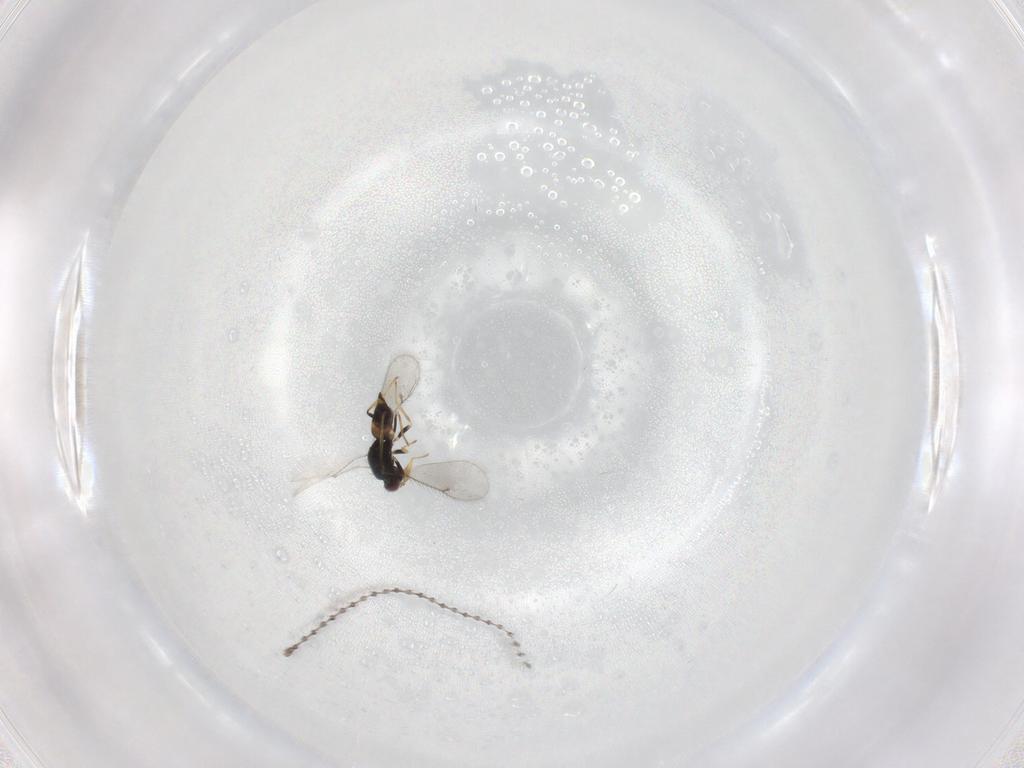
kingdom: Animalia
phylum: Arthropoda
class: Insecta
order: Hymenoptera
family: Eulophidae
